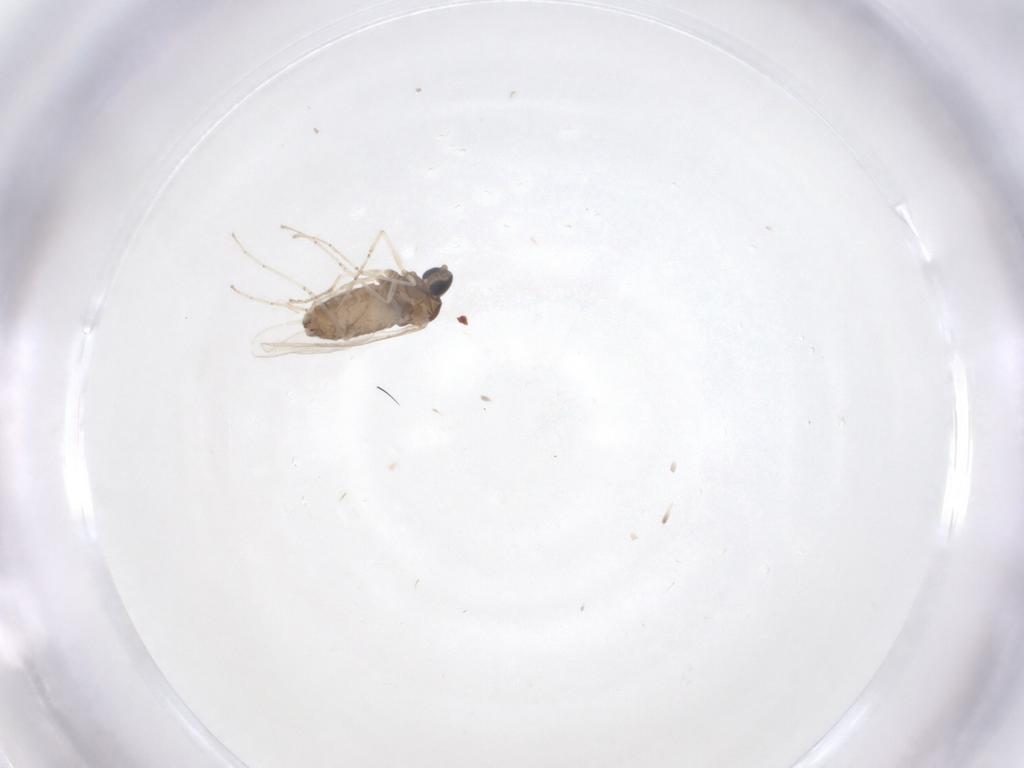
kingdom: Animalia
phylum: Arthropoda
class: Insecta
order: Diptera
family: Cecidomyiidae
